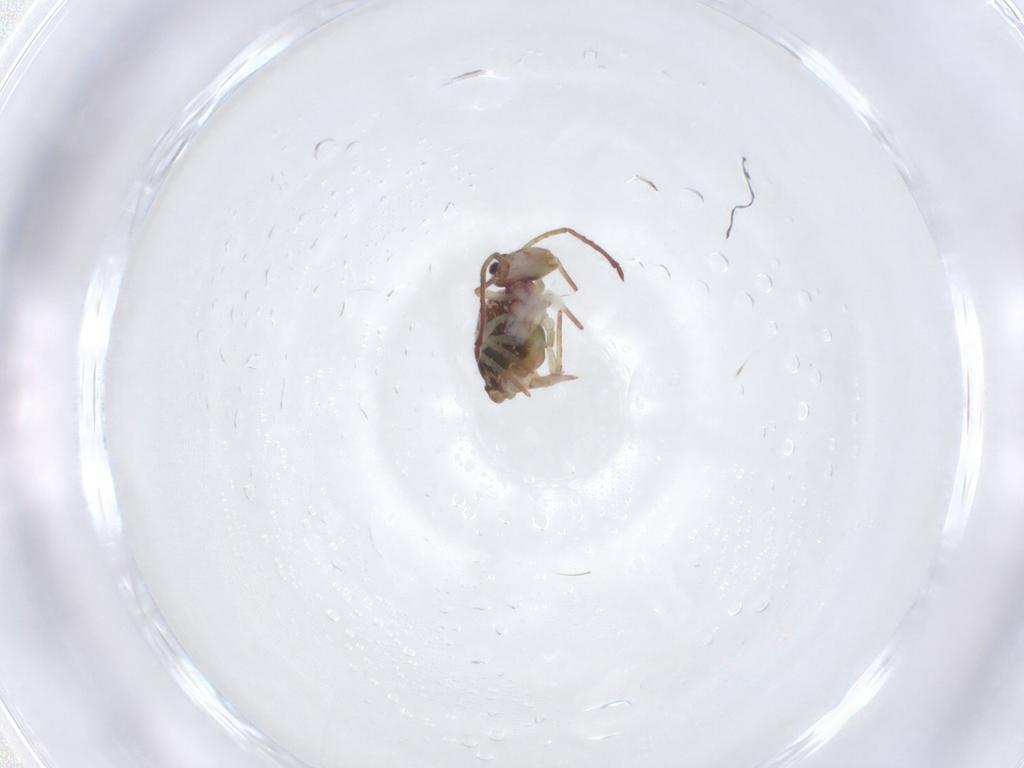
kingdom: Animalia
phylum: Arthropoda
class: Collembola
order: Symphypleona
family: Dicyrtomidae
